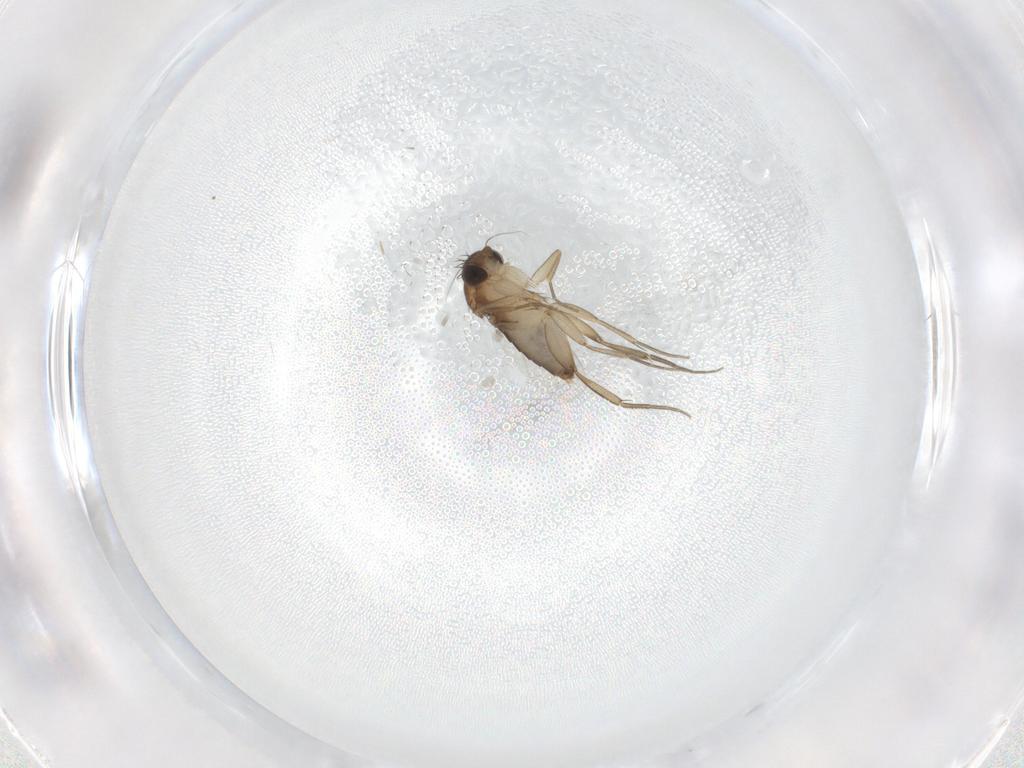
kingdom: Animalia
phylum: Arthropoda
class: Insecta
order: Diptera
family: Phoridae
